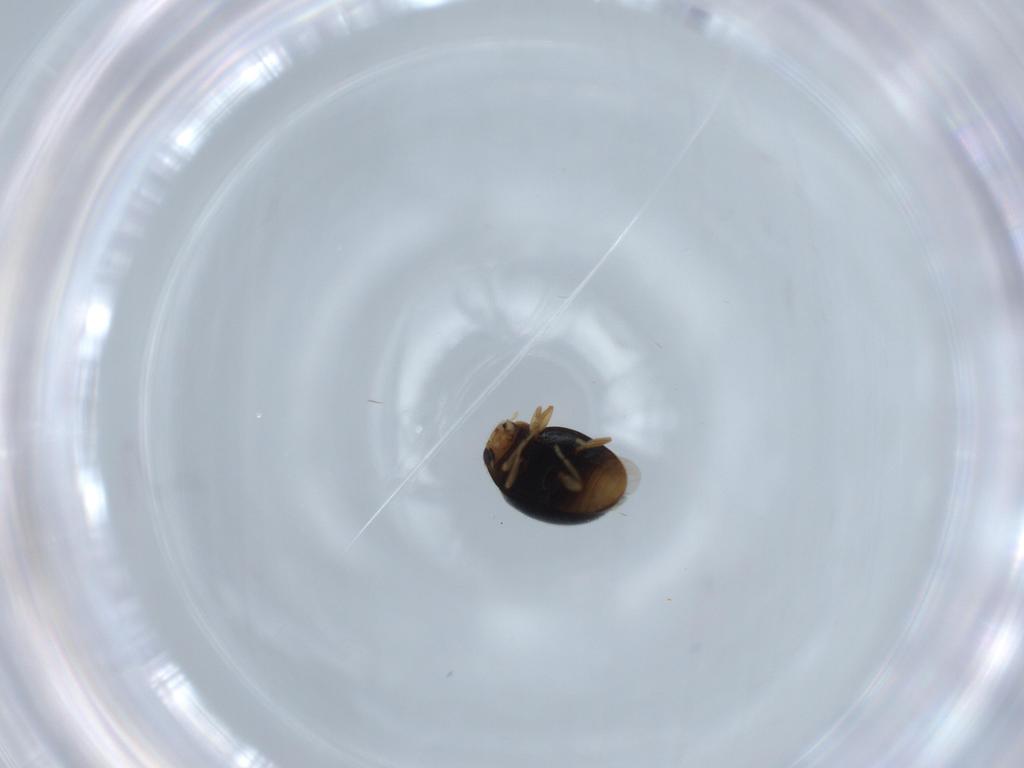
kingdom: Animalia
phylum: Arthropoda
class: Insecta
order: Coleoptera
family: Coccinellidae
